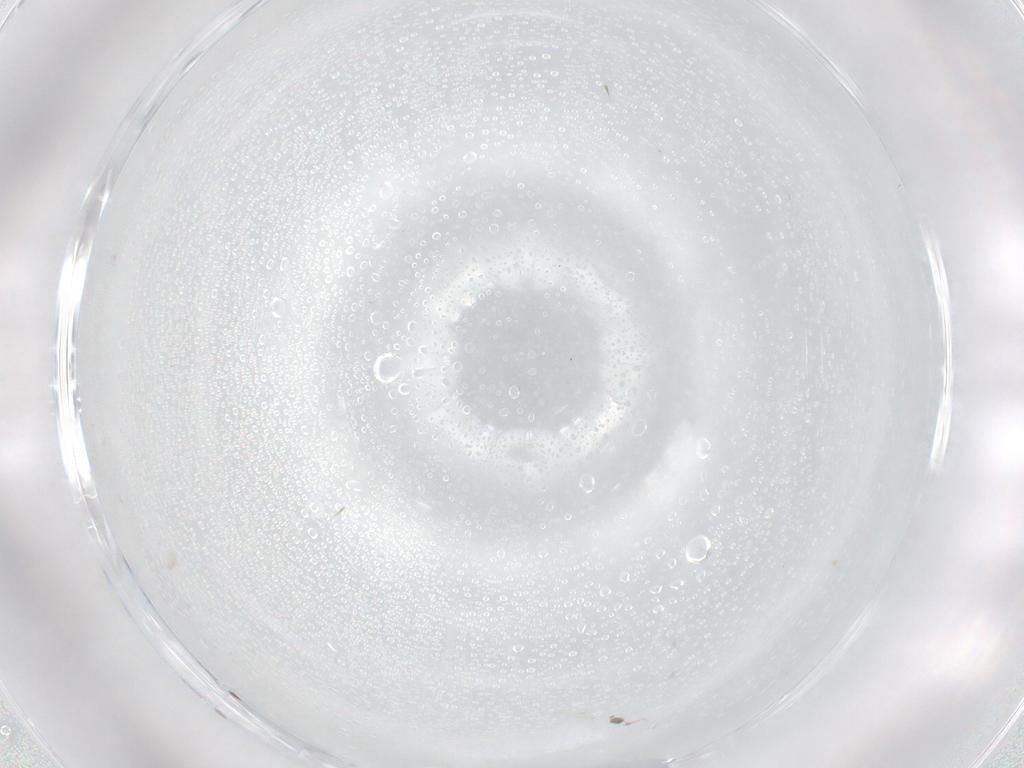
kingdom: Animalia
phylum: Arthropoda
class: Insecta
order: Diptera
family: Cecidomyiidae
